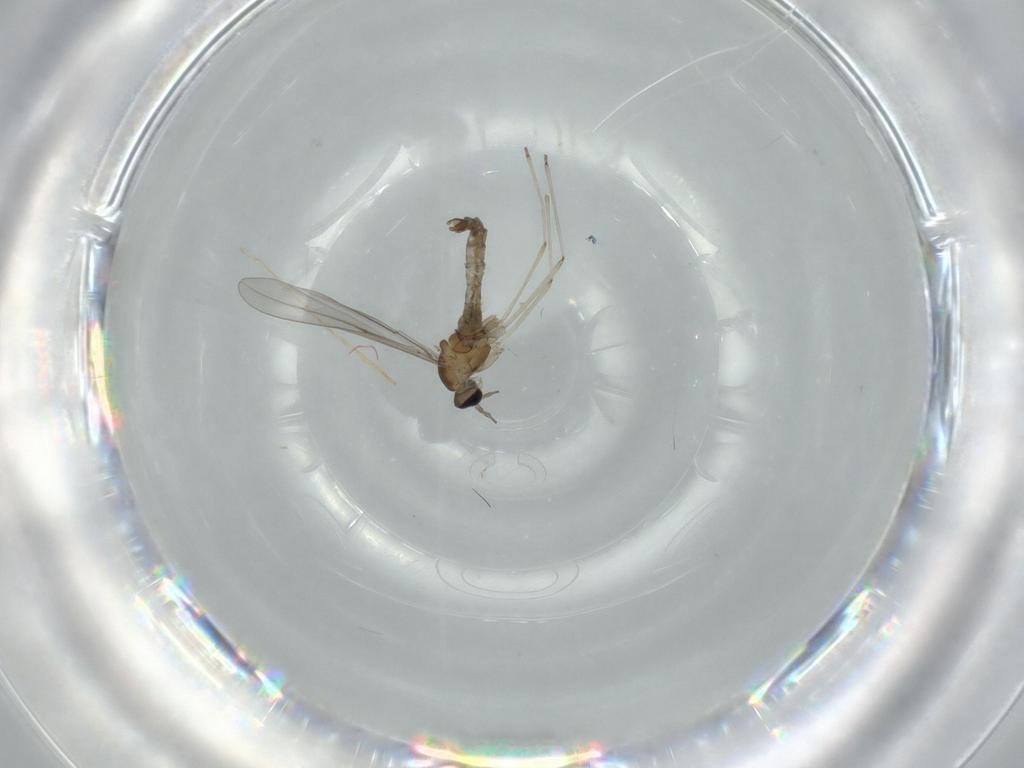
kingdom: Animalia
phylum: Arthropoda
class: Insecta
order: Diptera
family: Cecidomyiidae
